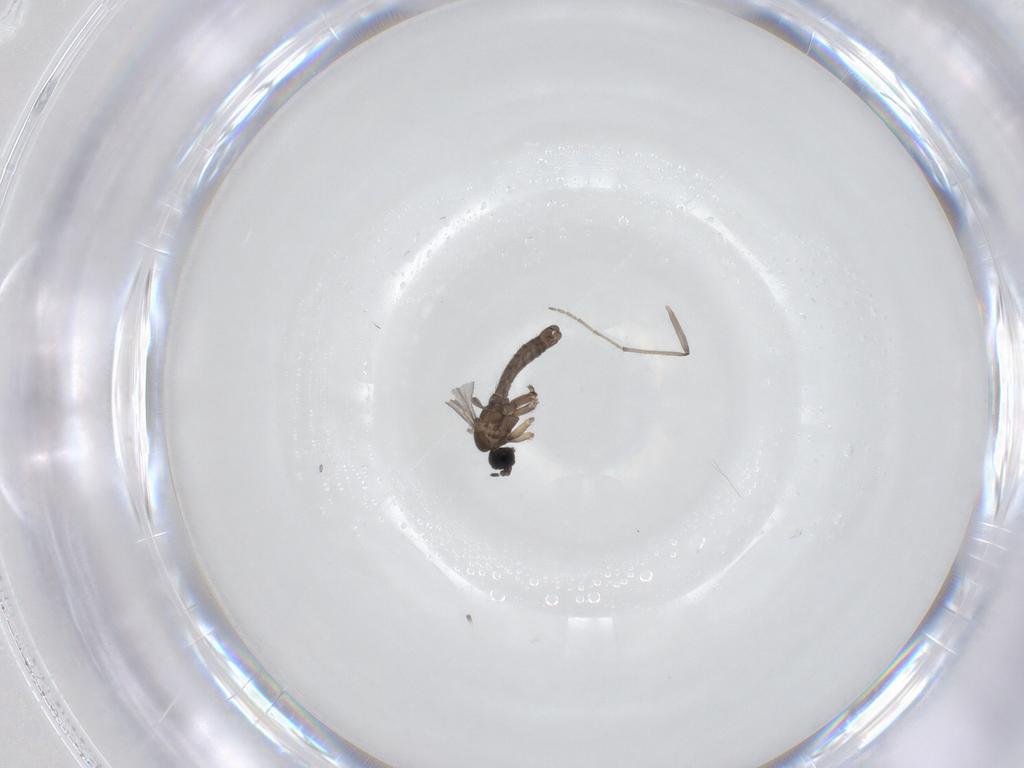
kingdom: Animalia
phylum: Arthropoda
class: Insecta
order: Diptera
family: Sciaridae
